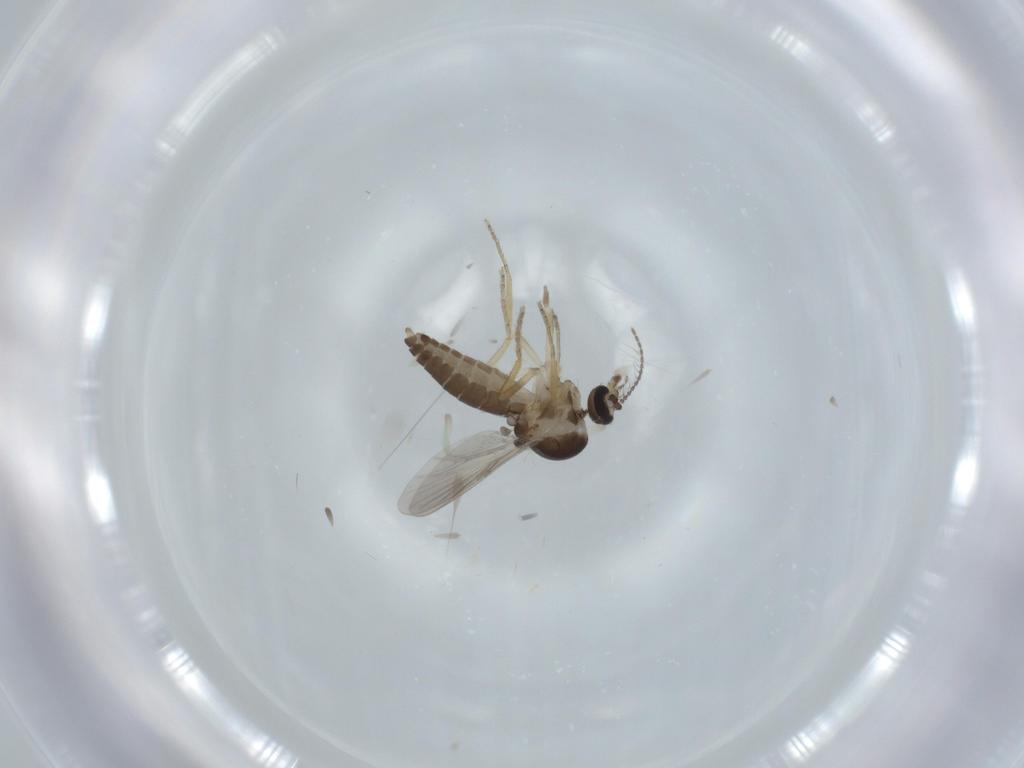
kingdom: Animalia
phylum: Arthropoda
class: Insecta
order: Diptera
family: Ceratopogonidae
